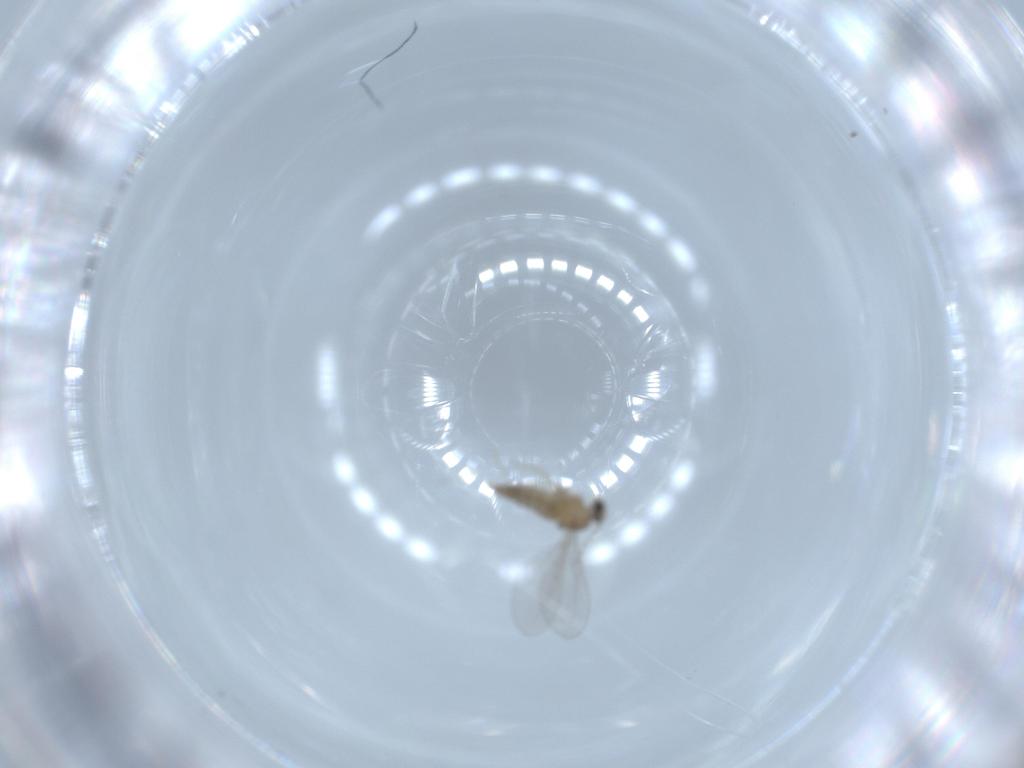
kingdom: Animalia
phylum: Arthropoda
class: Insecta
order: Diptera
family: Cecidomyiidae
